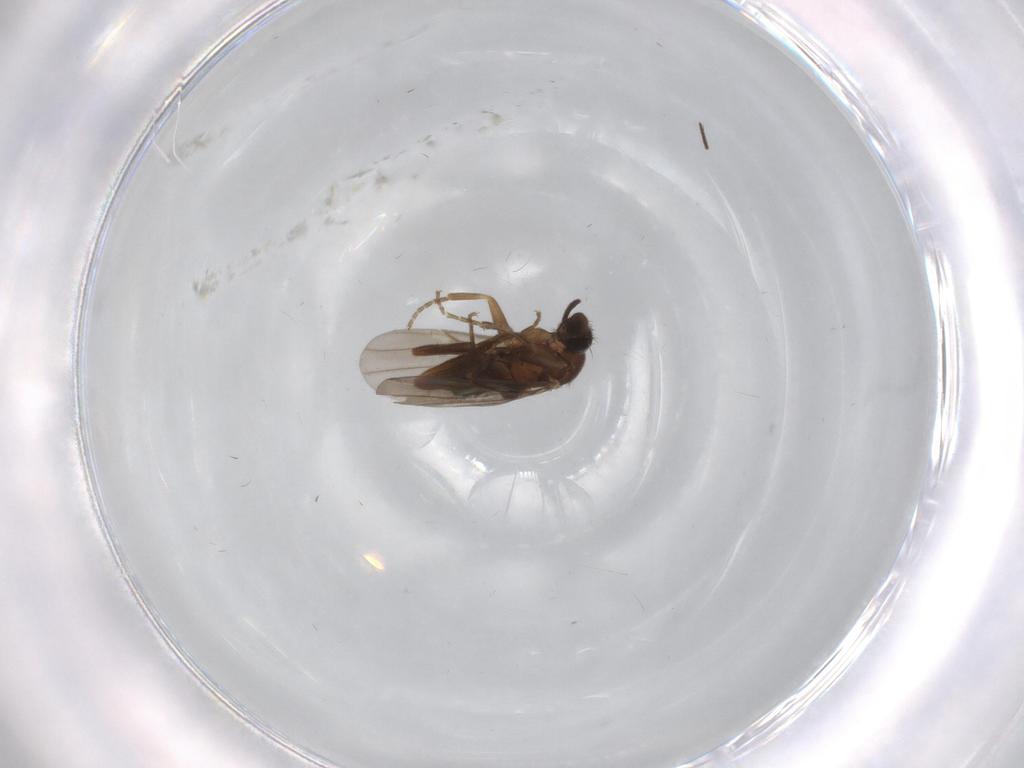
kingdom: Animalia
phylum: Arthropoda
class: Insecta
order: Diptera
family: Phoridae
